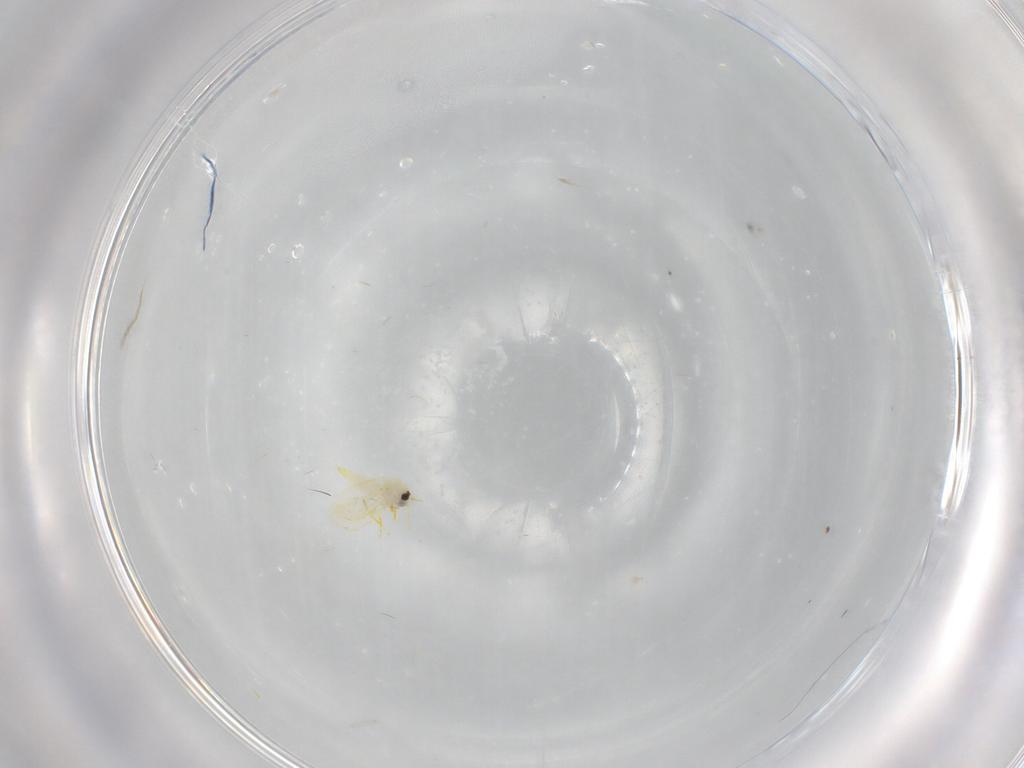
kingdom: Animalia
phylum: Arthropoda
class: Insecta
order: Hemiptera
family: Aleyrodidae
